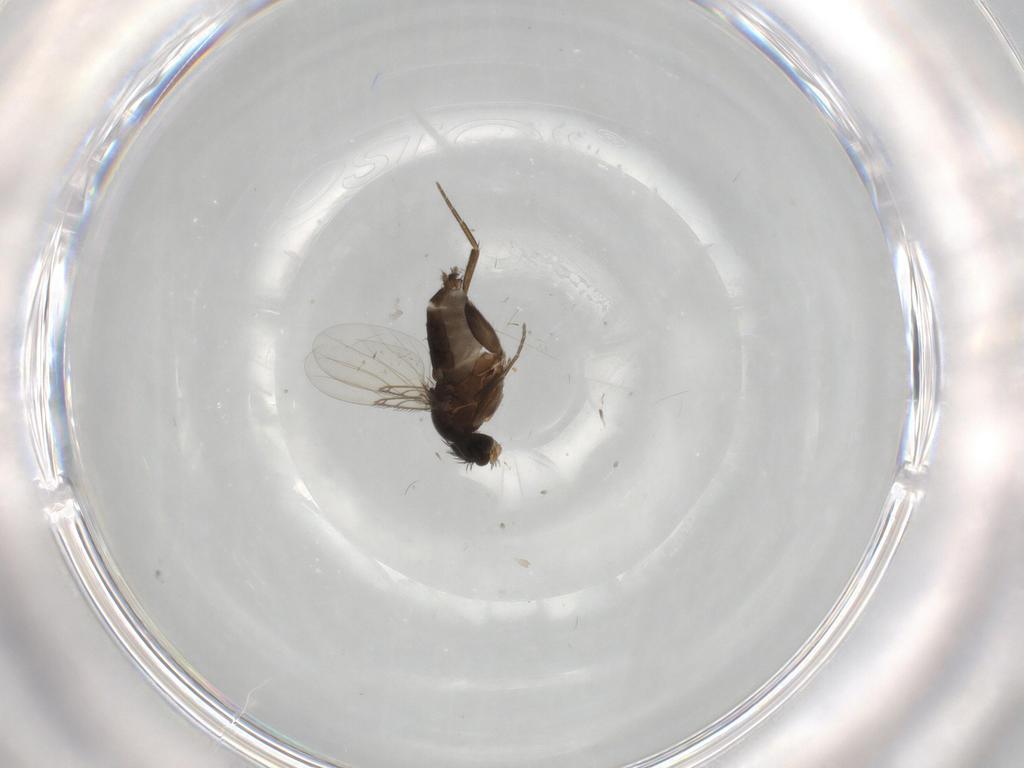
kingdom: Animalia
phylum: Arthropoda
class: Insecta
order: Diptera
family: Phoridae
